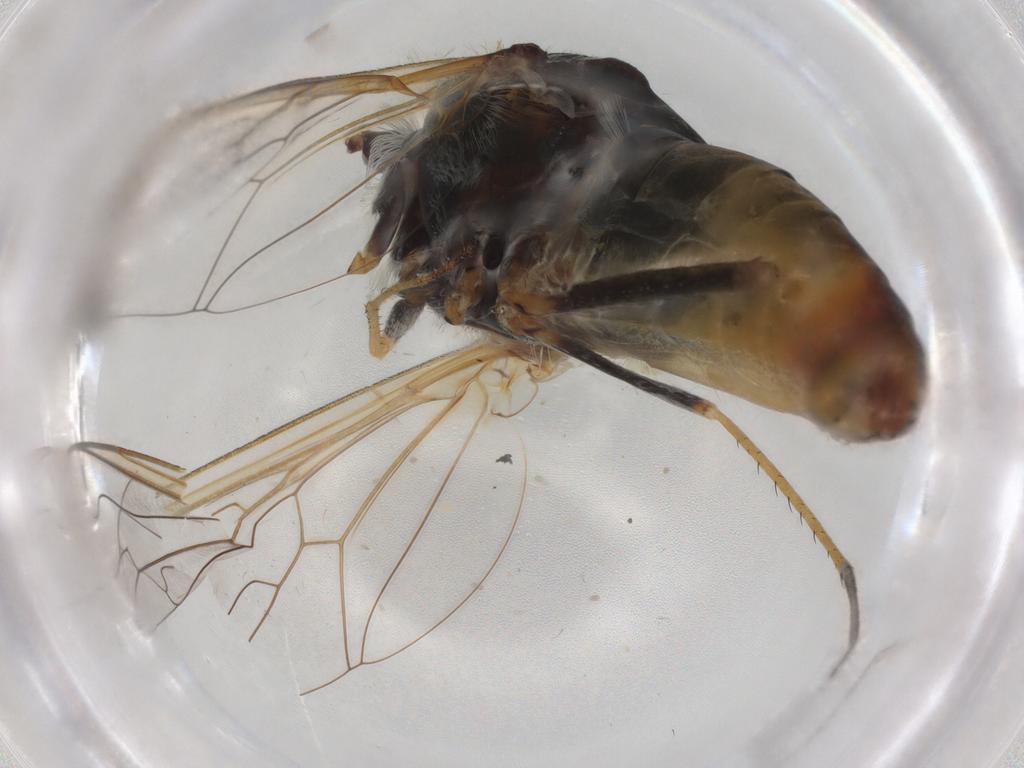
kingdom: Animalia
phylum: Arthropoda
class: Insecta
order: Diptera
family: Bombyliidae
